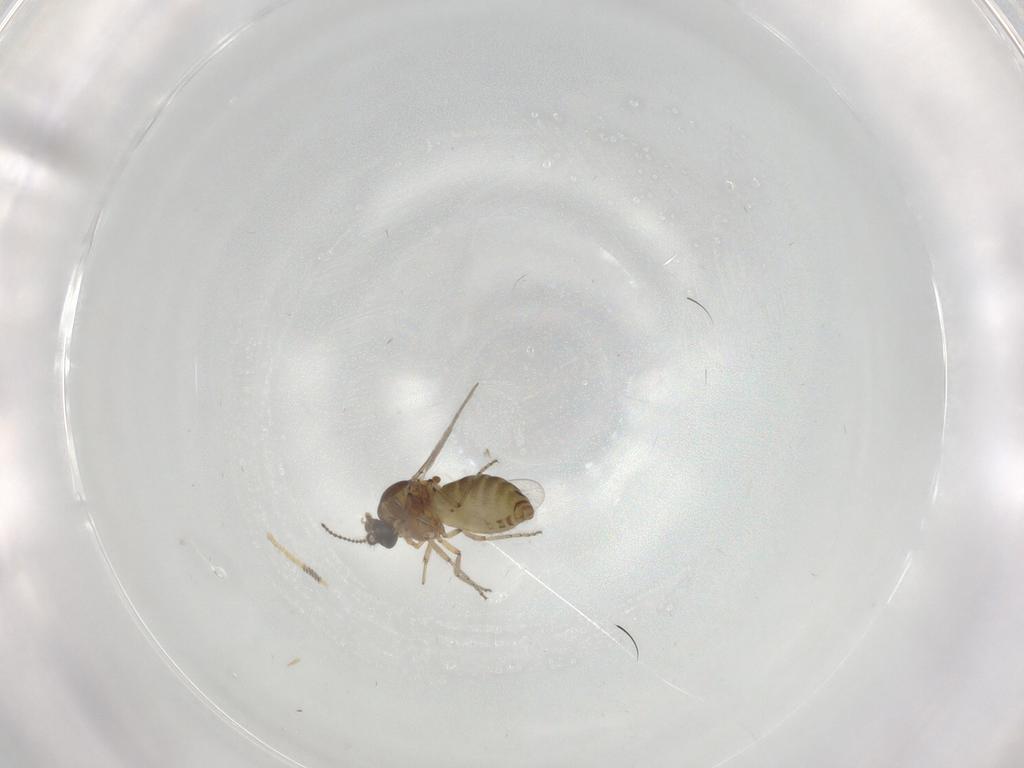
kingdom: Animalia
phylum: Arthropoda
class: Insecta
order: Diptera
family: Ceratopogonidae
